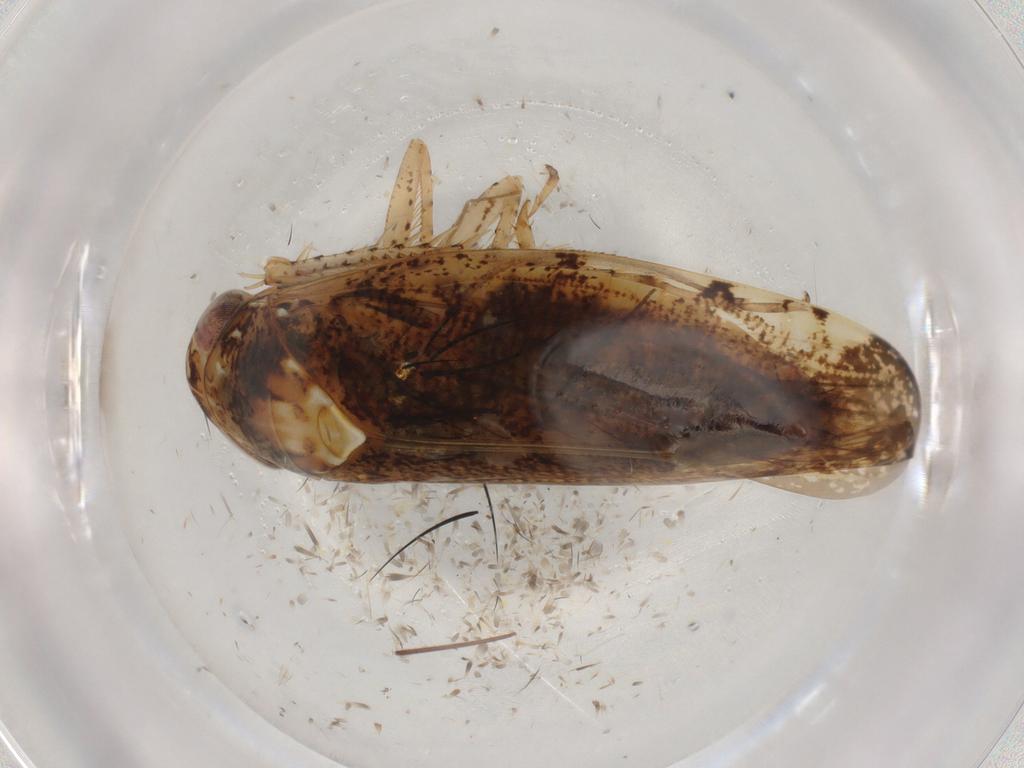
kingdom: Animalia
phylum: Arthropoda
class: Insecta
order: Hemiptera
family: Cicadellidae
